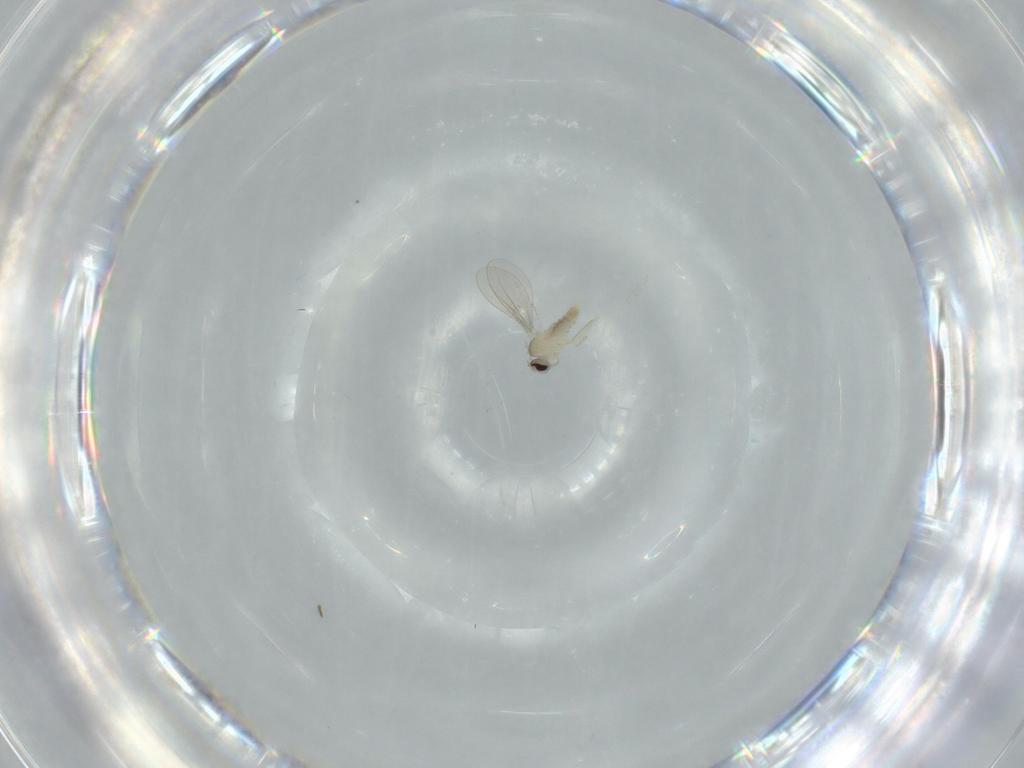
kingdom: Animalia
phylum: Arthropoda
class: Insecta
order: Diptera
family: Cecidomyiidae
